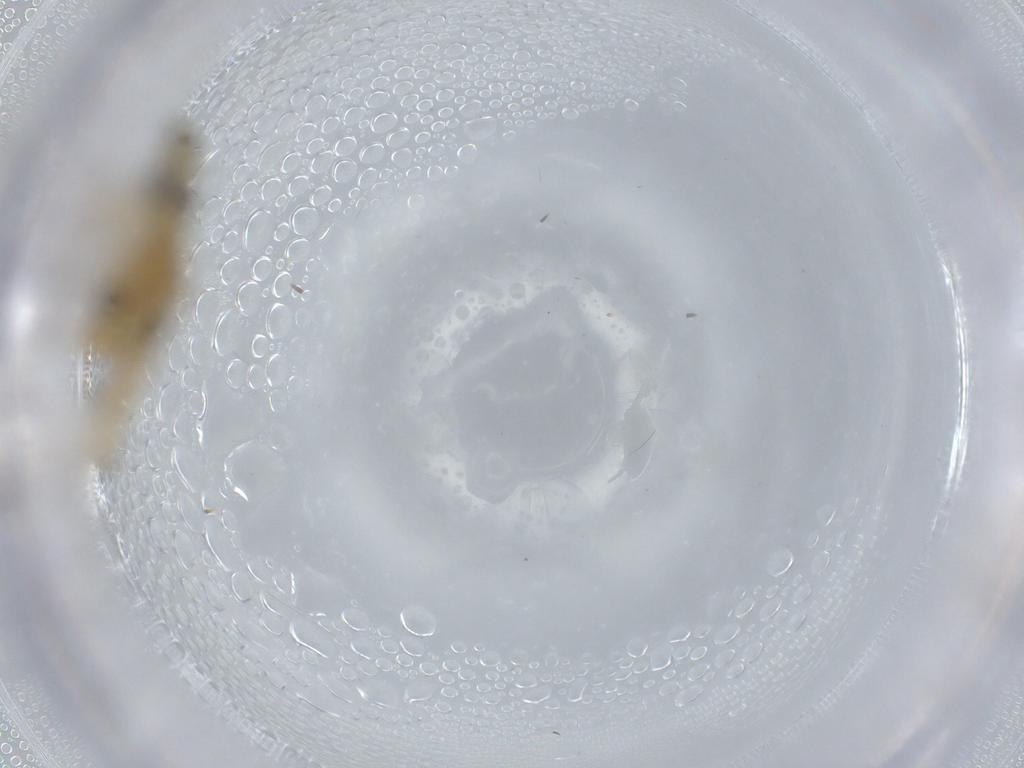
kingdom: Animalia
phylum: Arthropoda
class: Insecta
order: Coleoptera
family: Curculionidae
